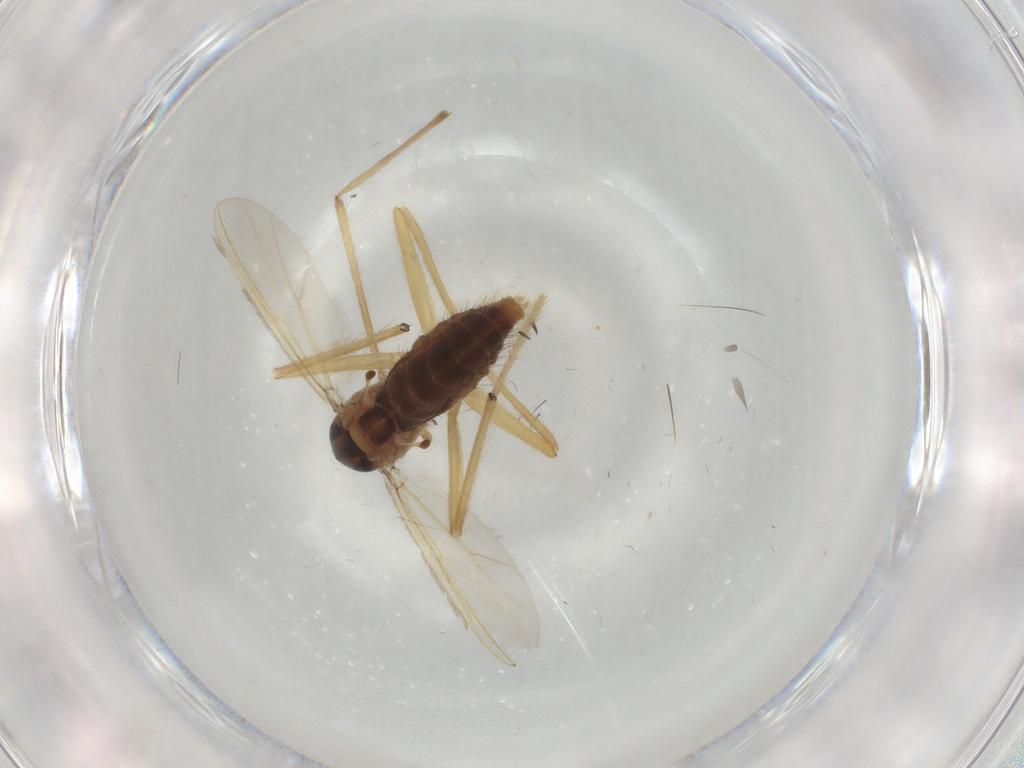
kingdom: Animalia
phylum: Arthropoda
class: Insecta
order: Diptera
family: Chironomidae
